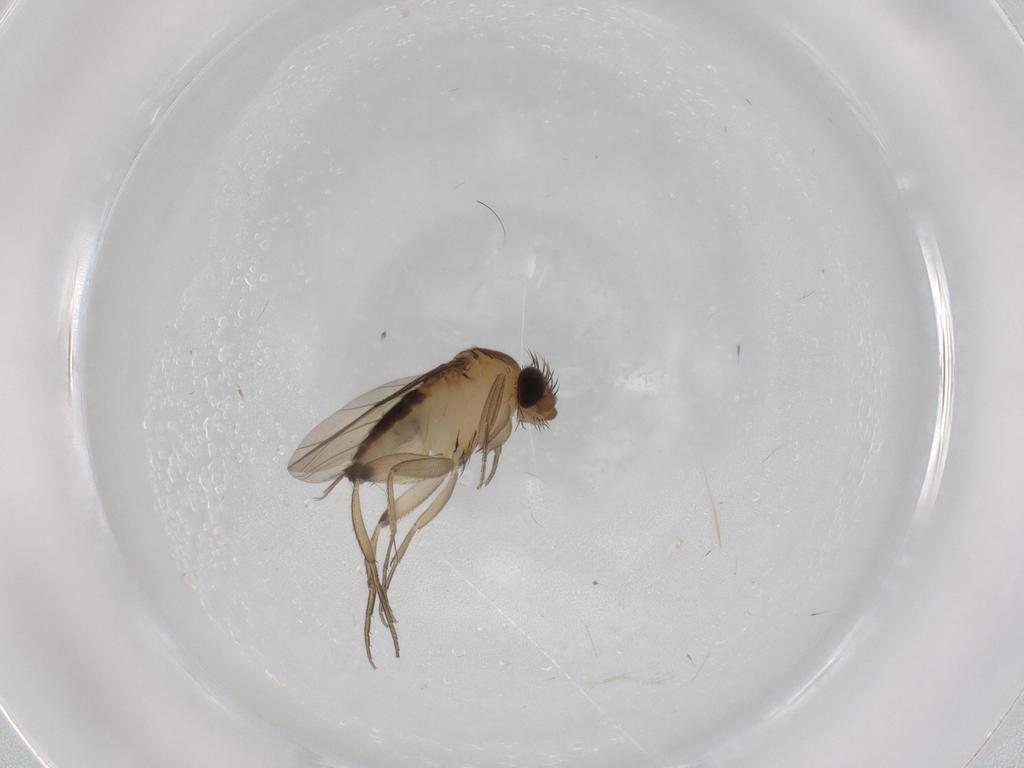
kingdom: Animalia
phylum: Arthropoda
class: Insecta
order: Diptera
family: Phoridae
